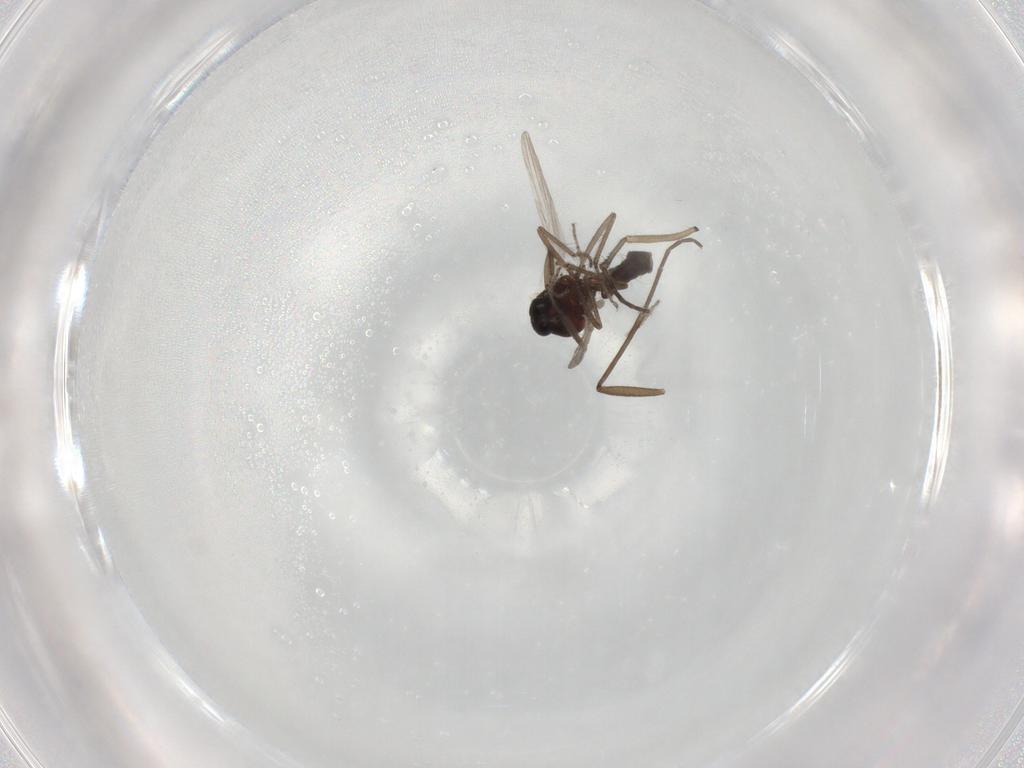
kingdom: Animalia
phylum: Arthropoda
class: Insecta
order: Diptera
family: Ceratopogonidae
